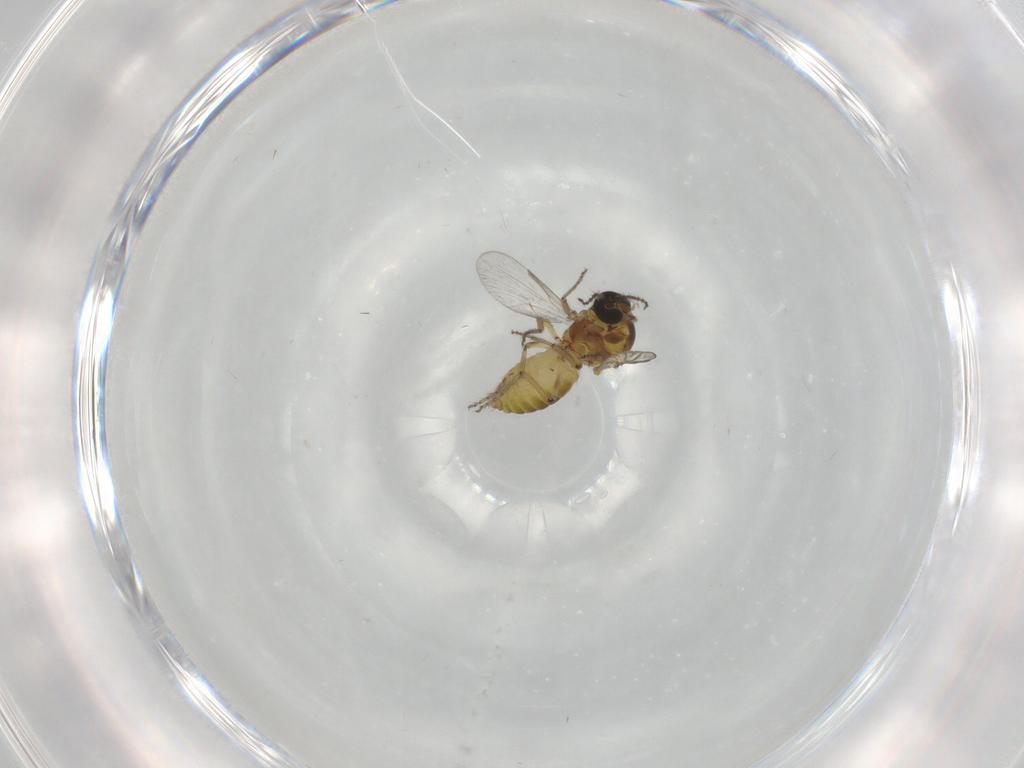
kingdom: Animalia
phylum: Arthropoda
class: Insecta
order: Diptera
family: Ceratopogonidae
